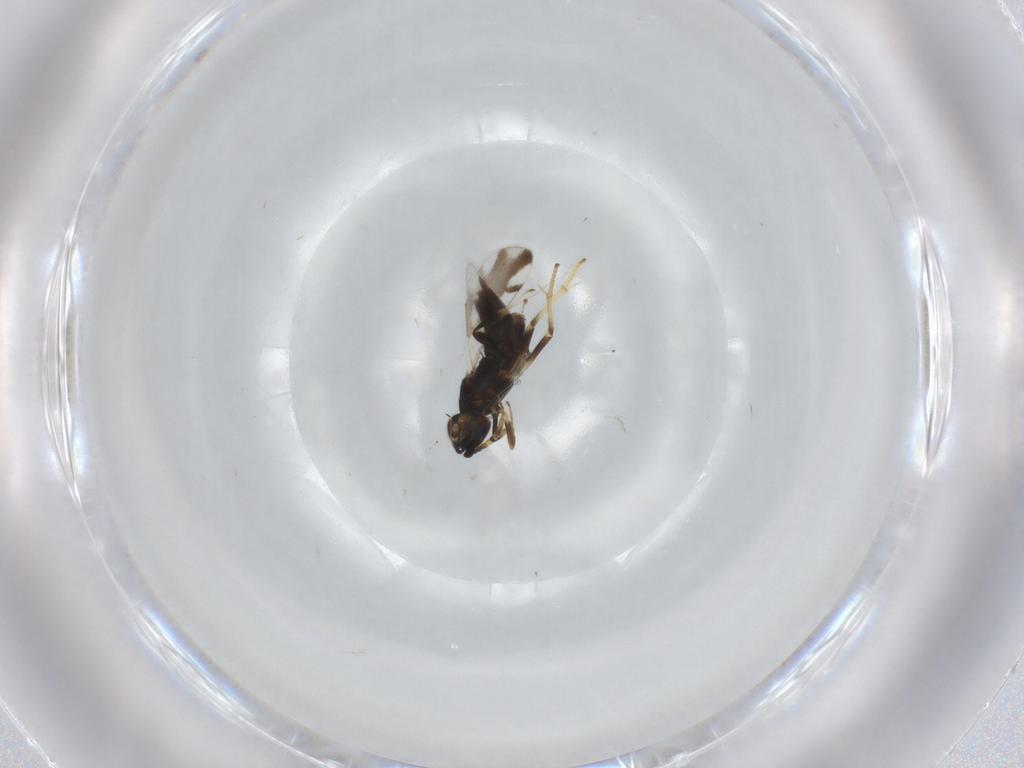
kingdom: Animalia
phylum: Arthropoda
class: Insecta
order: Hymenoptera
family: Encyrtidae
